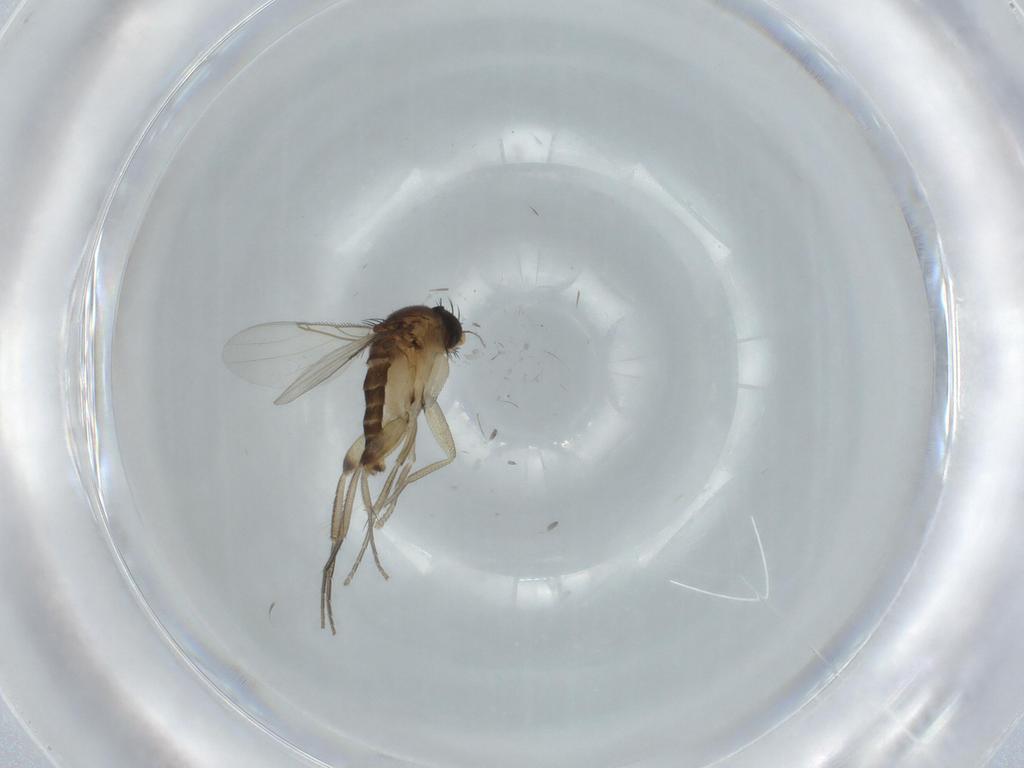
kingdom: Animalia
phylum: Arthropoda
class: Insecta
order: Diptera
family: Phoridae
